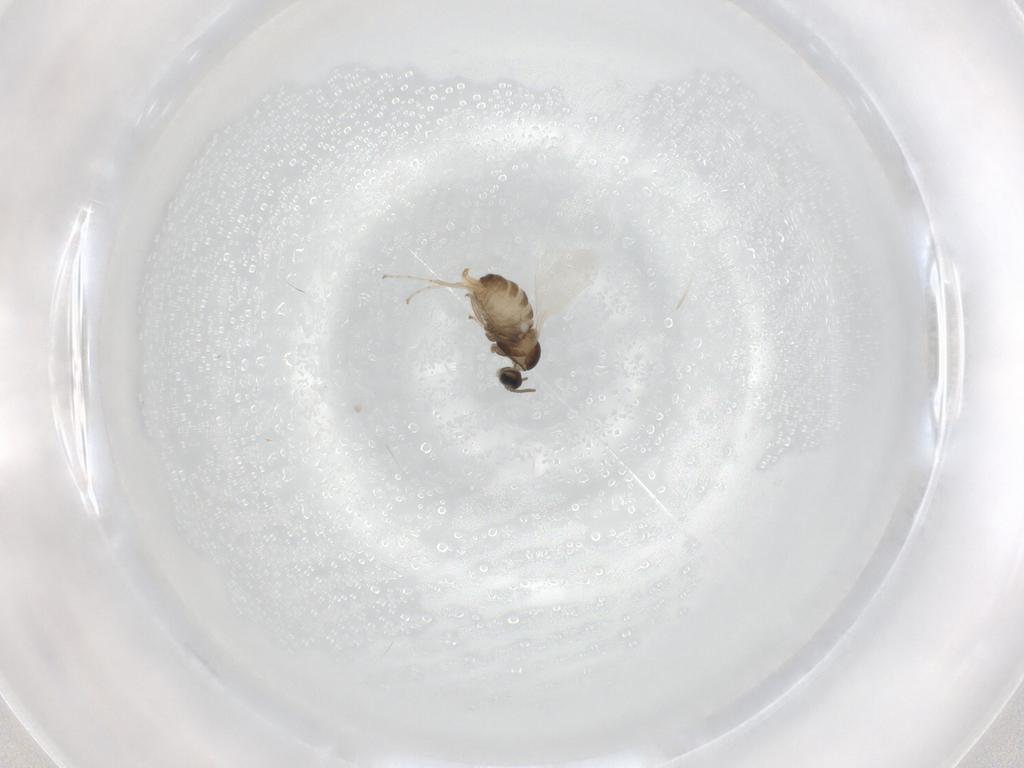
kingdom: Animalia
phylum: Arthropoda
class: Insecta
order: Diptera
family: Cecidomyiidae
